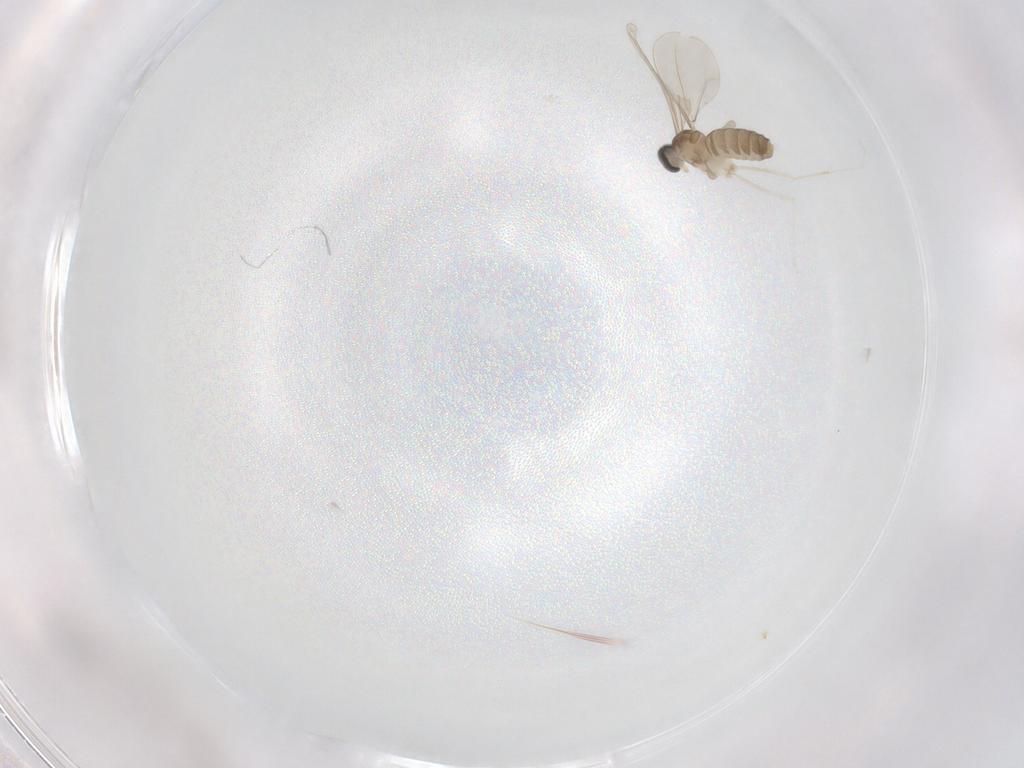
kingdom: Animalia
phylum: Arthropoda
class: Insecta
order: Diptera
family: Cecidomyiidae
